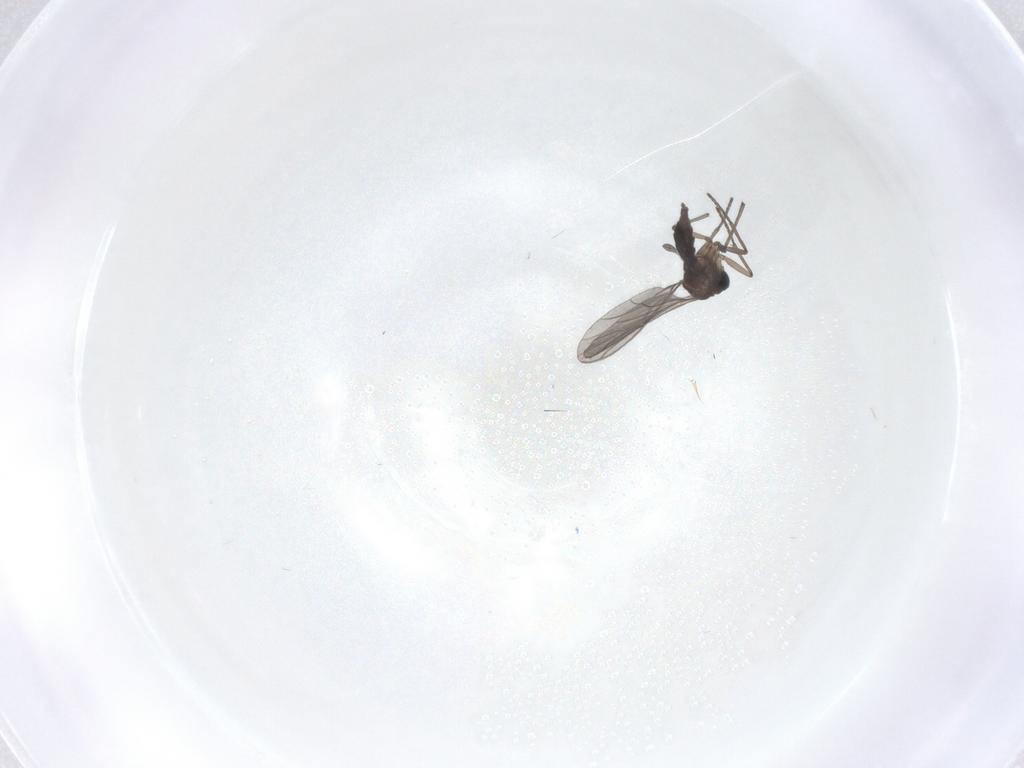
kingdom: Animalia
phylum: Arthropoda
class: Insecta
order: Diptera
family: Sciaridae
